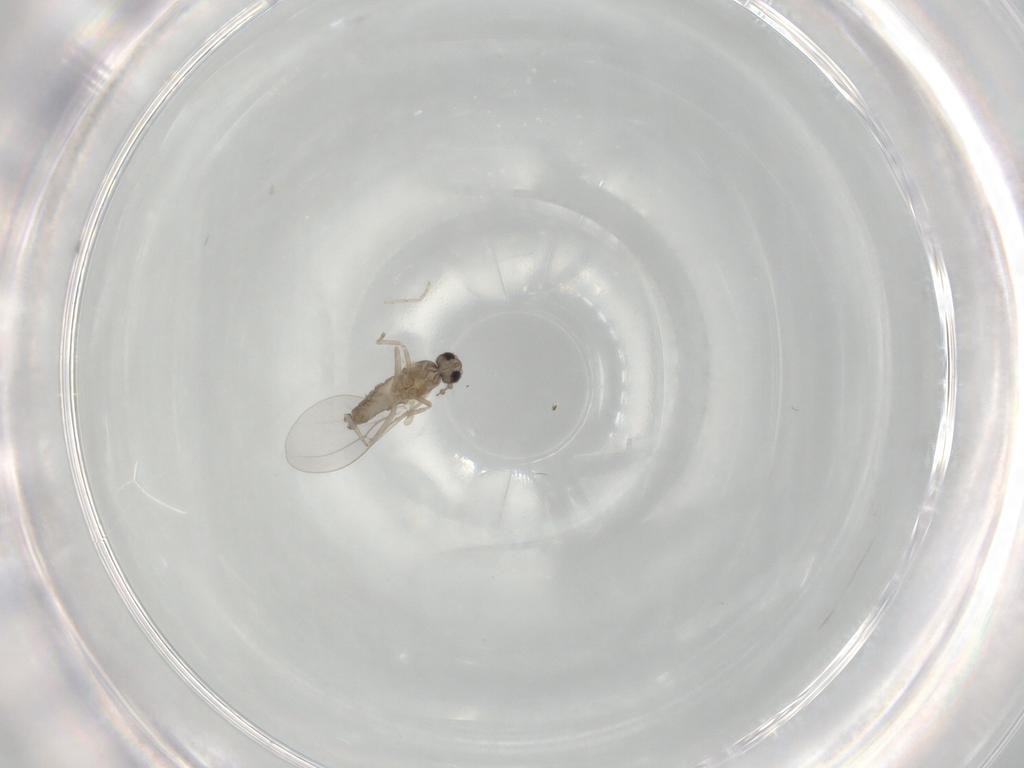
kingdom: Animalia
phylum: Arthropoda
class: Insecta
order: Diptera
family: Cecidomyiidae
